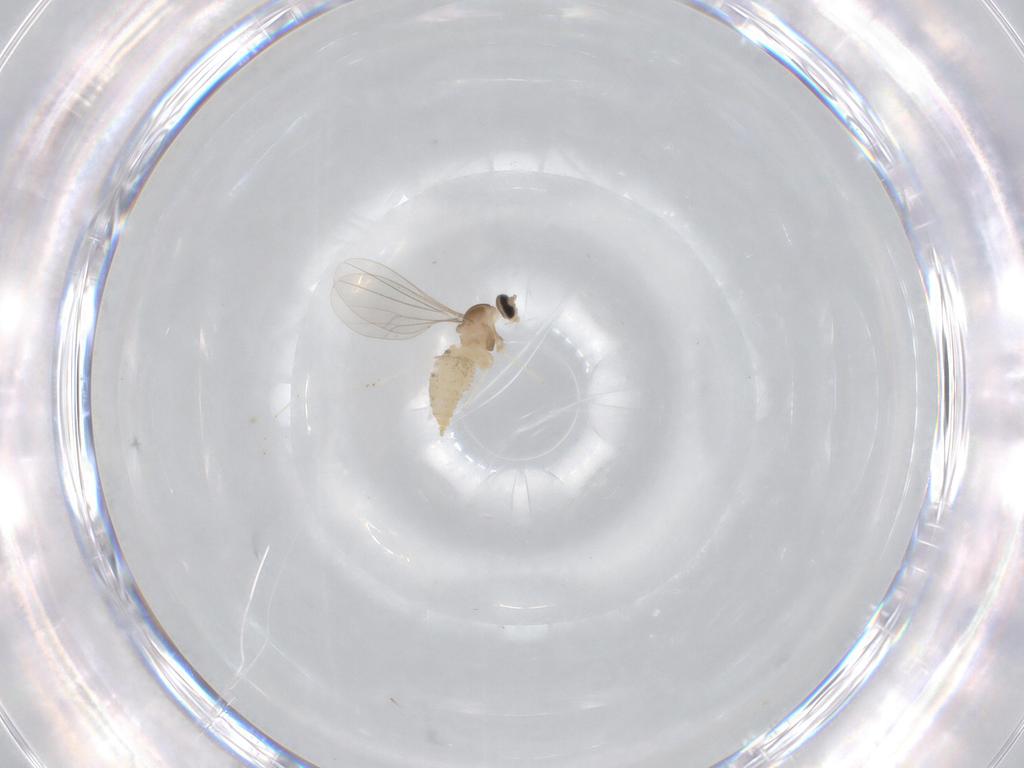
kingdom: Animalia
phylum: Arthropoda
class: Insecta
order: Diptera
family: Cecidomyiidae
